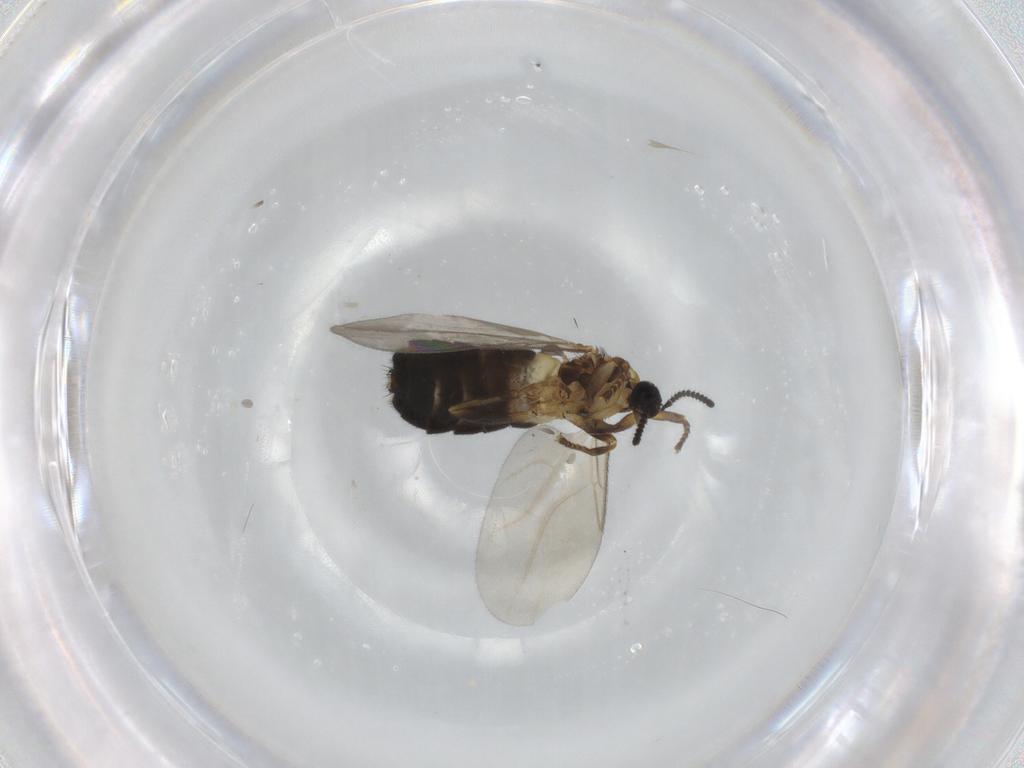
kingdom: Animalia
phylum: Arthropoda
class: Insecta
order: Diptera
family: Scatopsidae
